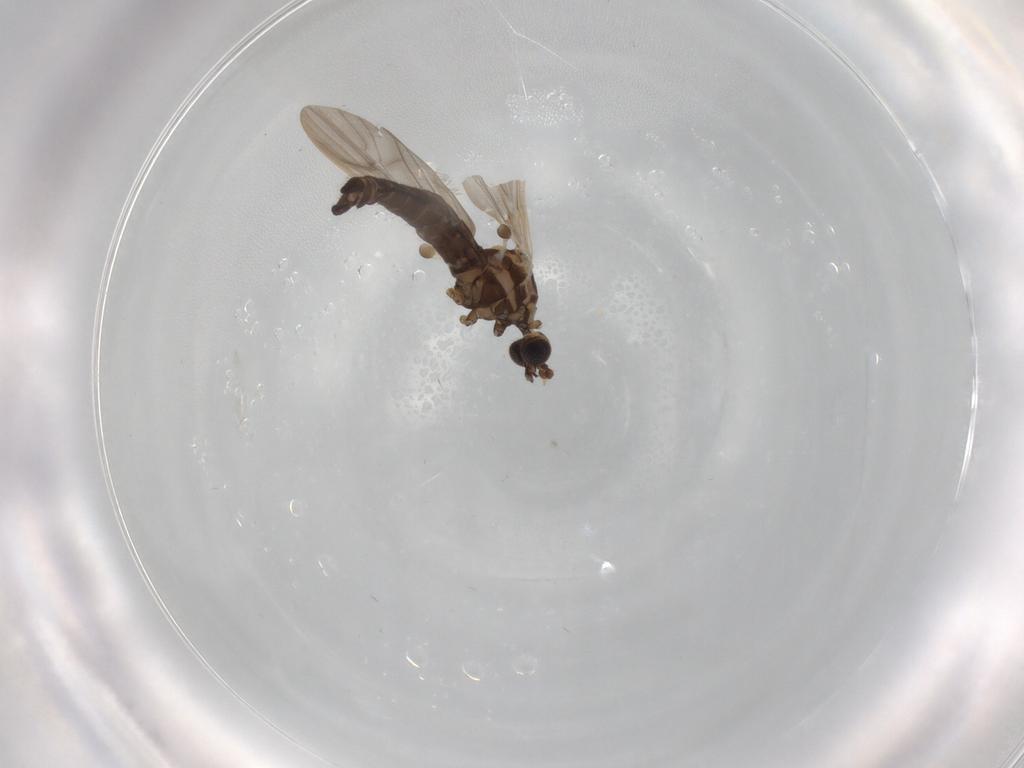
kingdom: Animalia
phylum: Arthropoda
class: Insecta
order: Diptera
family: Limoniidae
